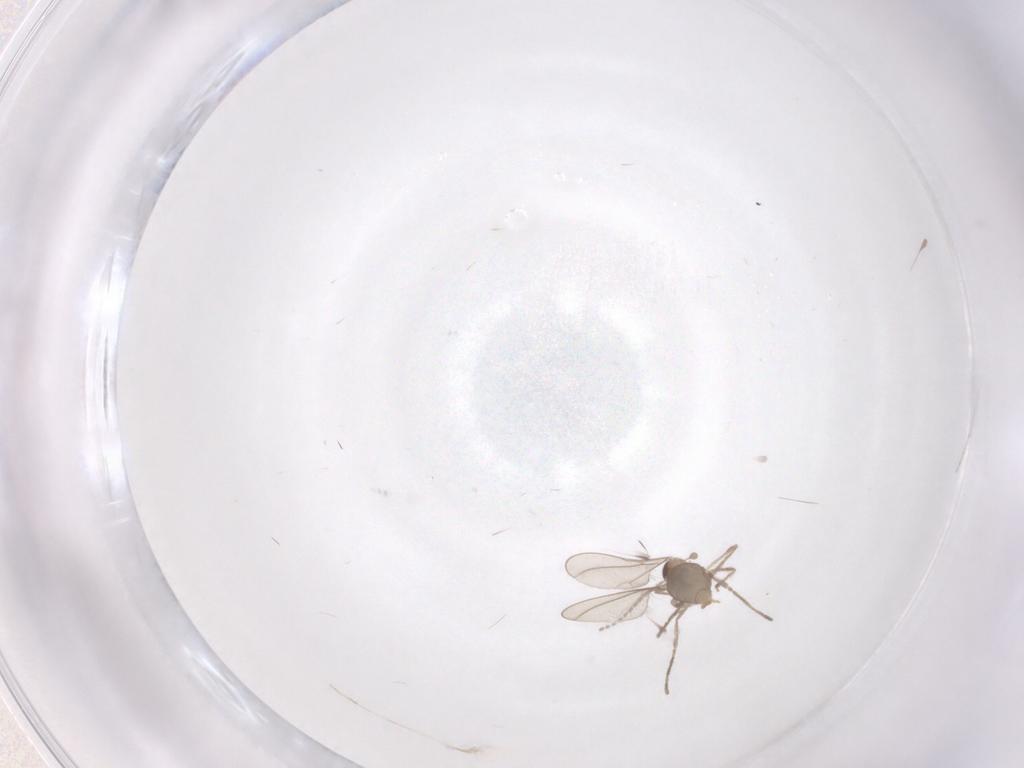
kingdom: Animalia
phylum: Arthropoda
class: Insecta
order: Diptera
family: Cecidomyiidae
